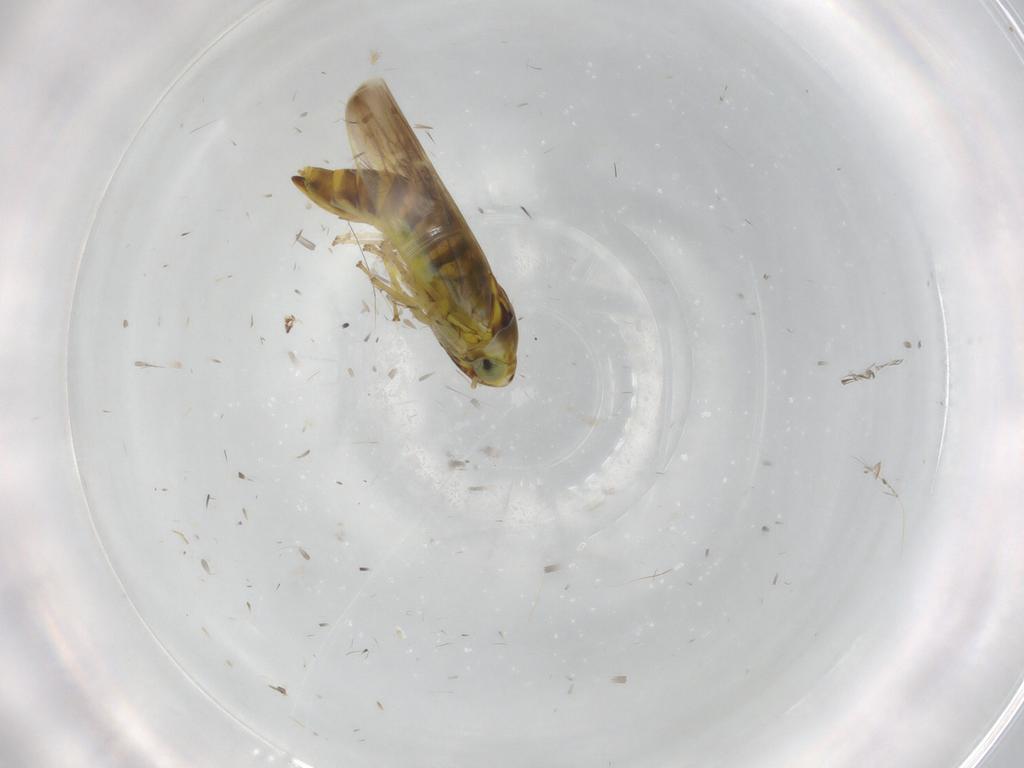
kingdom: Animalia
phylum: Arthropoda
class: Insecta
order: Hemiptera
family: Cicadellidae
